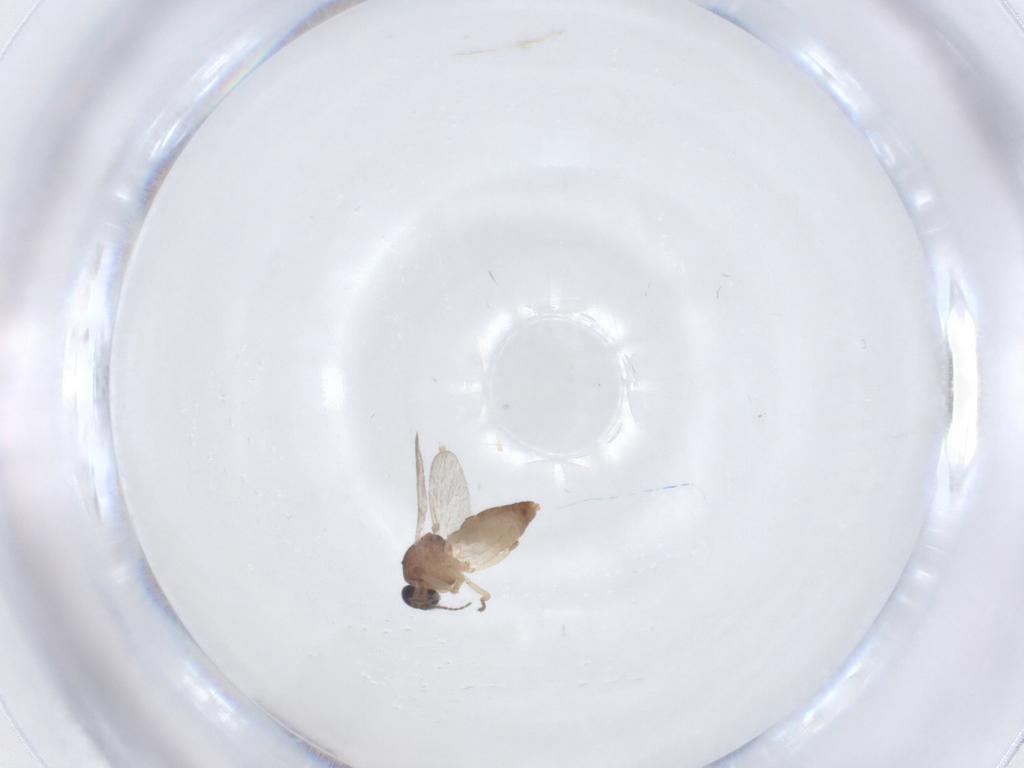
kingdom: Animalia
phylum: Arthropoda
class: Insecta
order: Diptera
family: Ceratopogonidae
